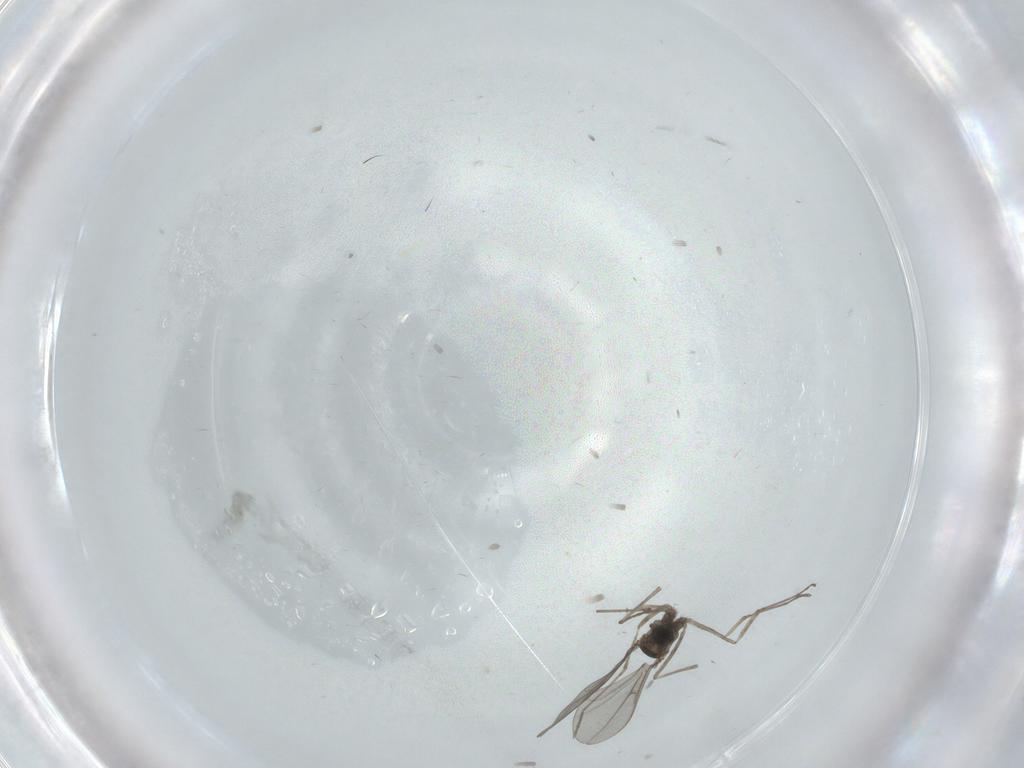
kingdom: Animalia
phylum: Arthropoda
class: Insecta
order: Diptera
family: Cecidomyiidae
